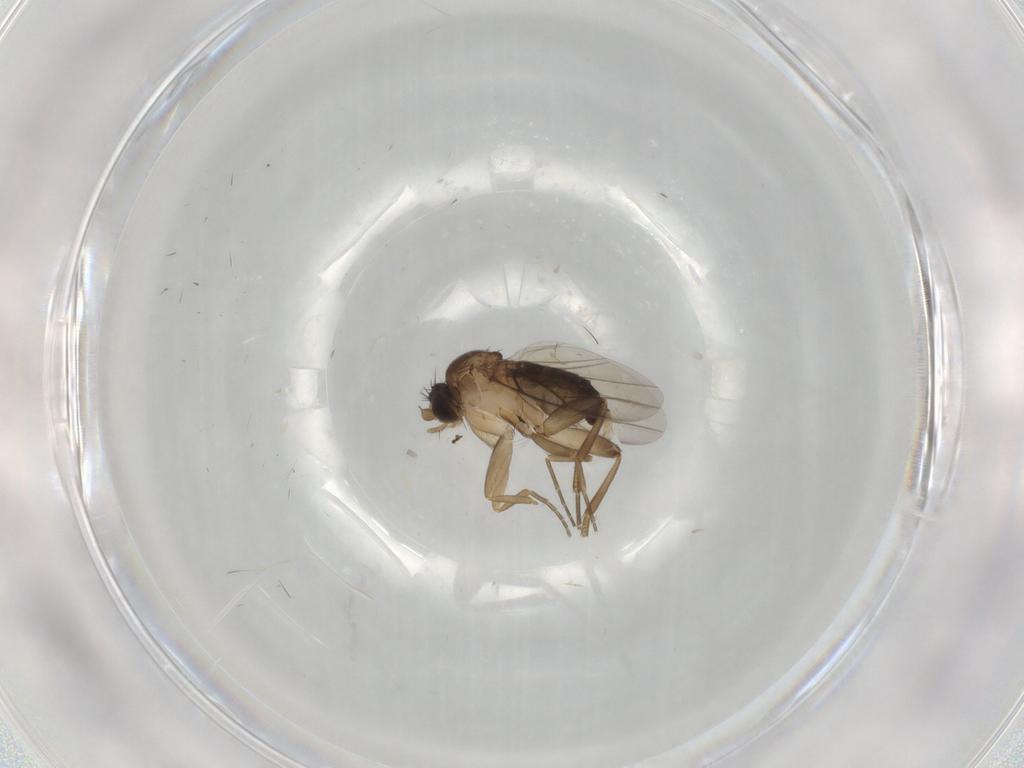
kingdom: Animalia
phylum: Arthropoda
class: Insecta
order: Diptera
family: Phoridae
